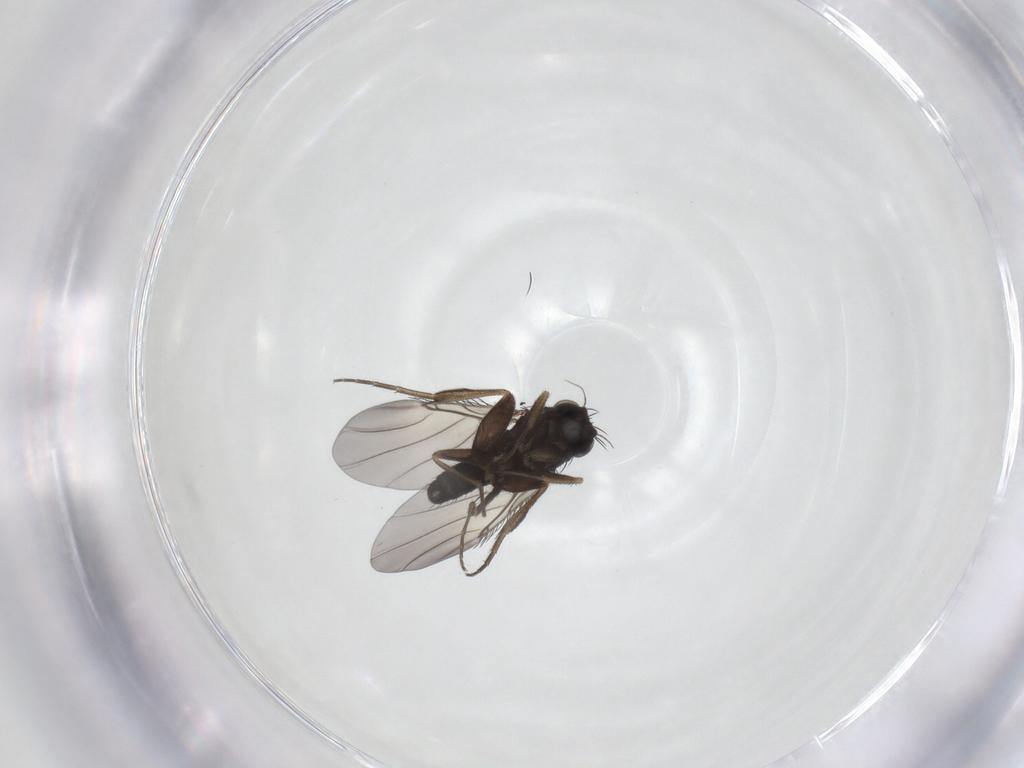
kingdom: Animalia
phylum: Arthropoda
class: Insecta
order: Diptera
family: Phoridae
